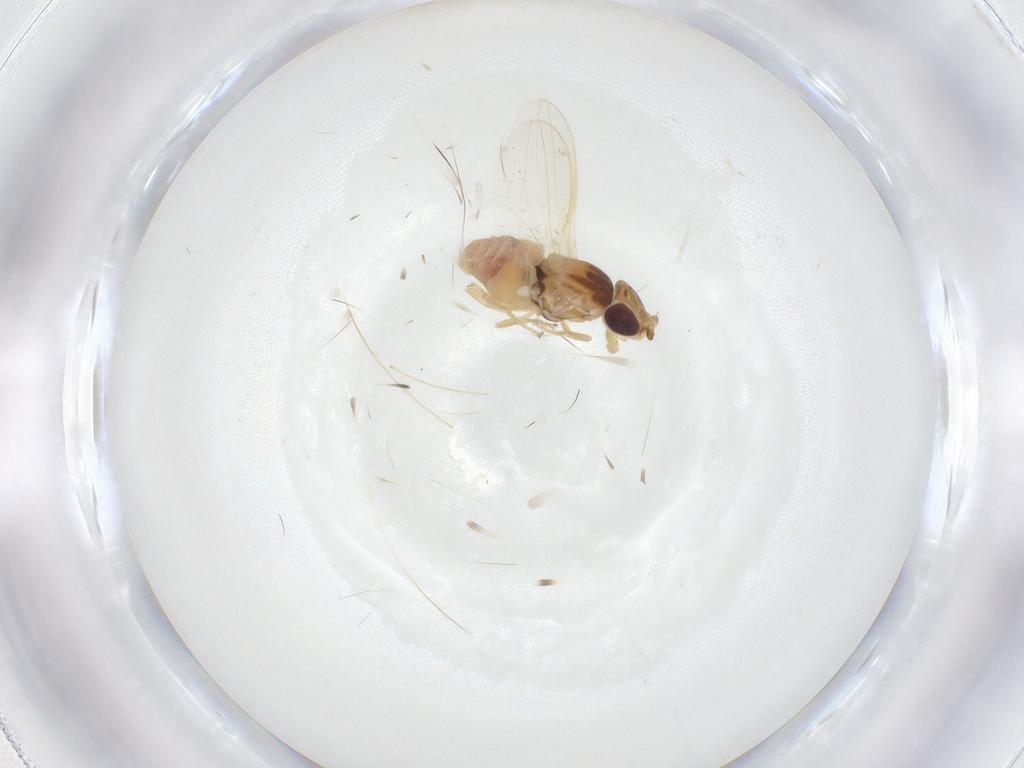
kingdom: Animalia
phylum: Arthropoda
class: Insecta
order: Diptera
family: Chloropidae
